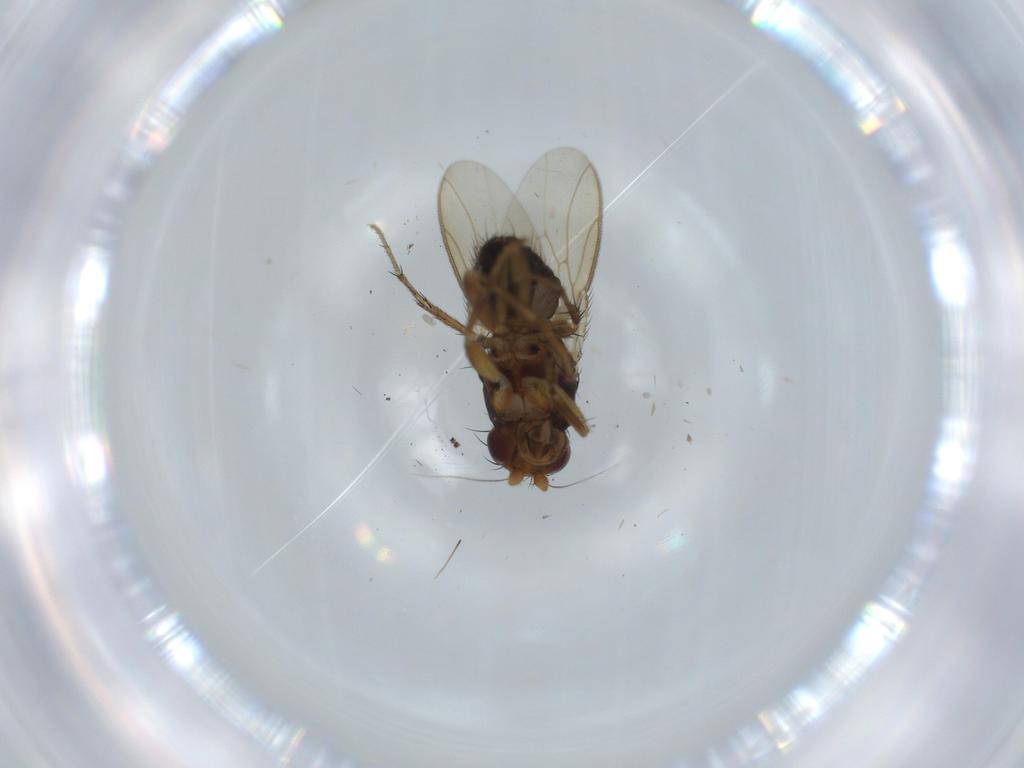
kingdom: Animalia
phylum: Arthropoda
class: Insecta
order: Diptera
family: Sphaeroceridae
